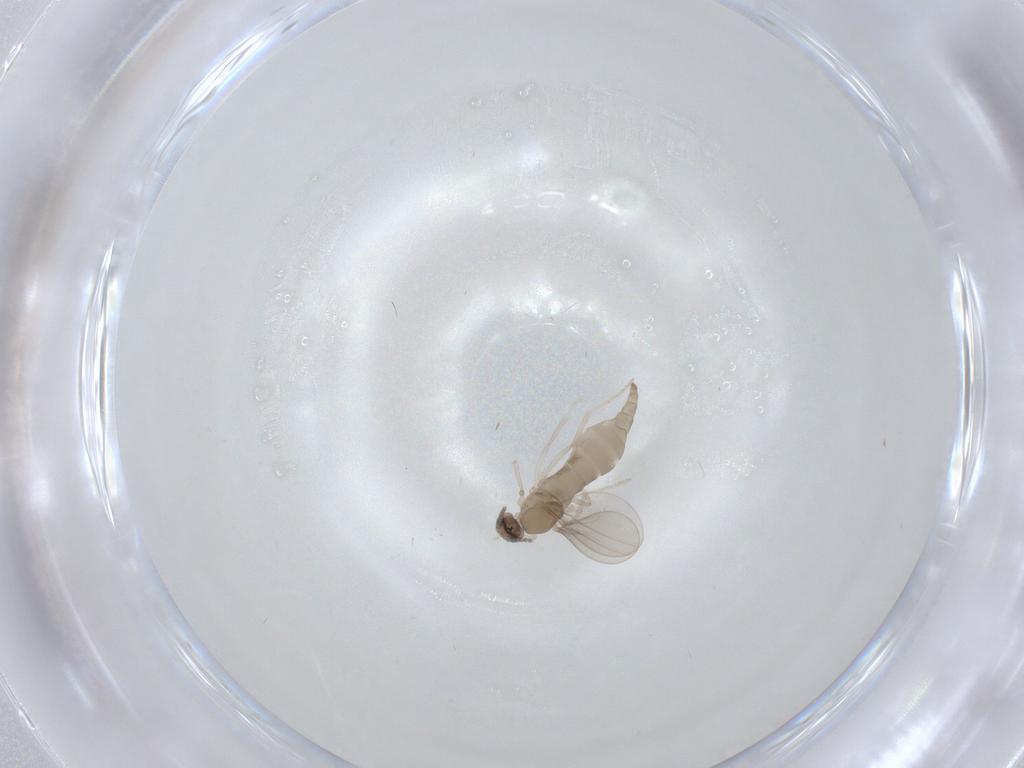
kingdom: Animalia
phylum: Arthropoda
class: Insecta
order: Diptera
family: Cecidomyiidae
